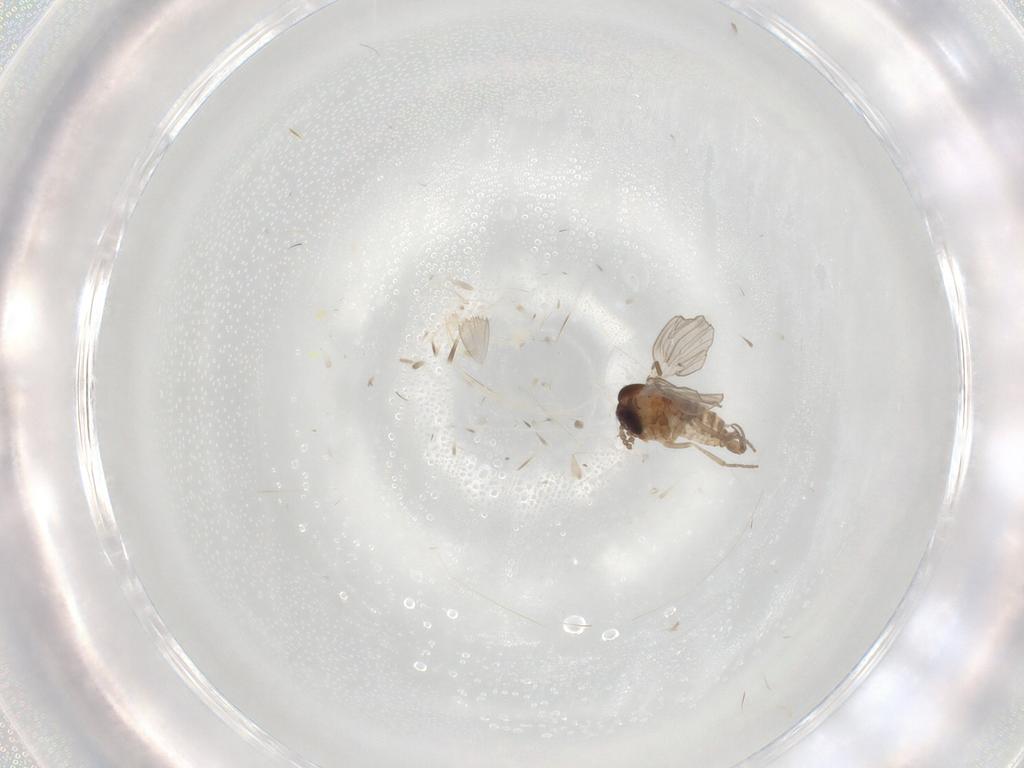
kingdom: Animalia
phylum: Arthropoda
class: Insecta
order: Diptera
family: Psychodidae
